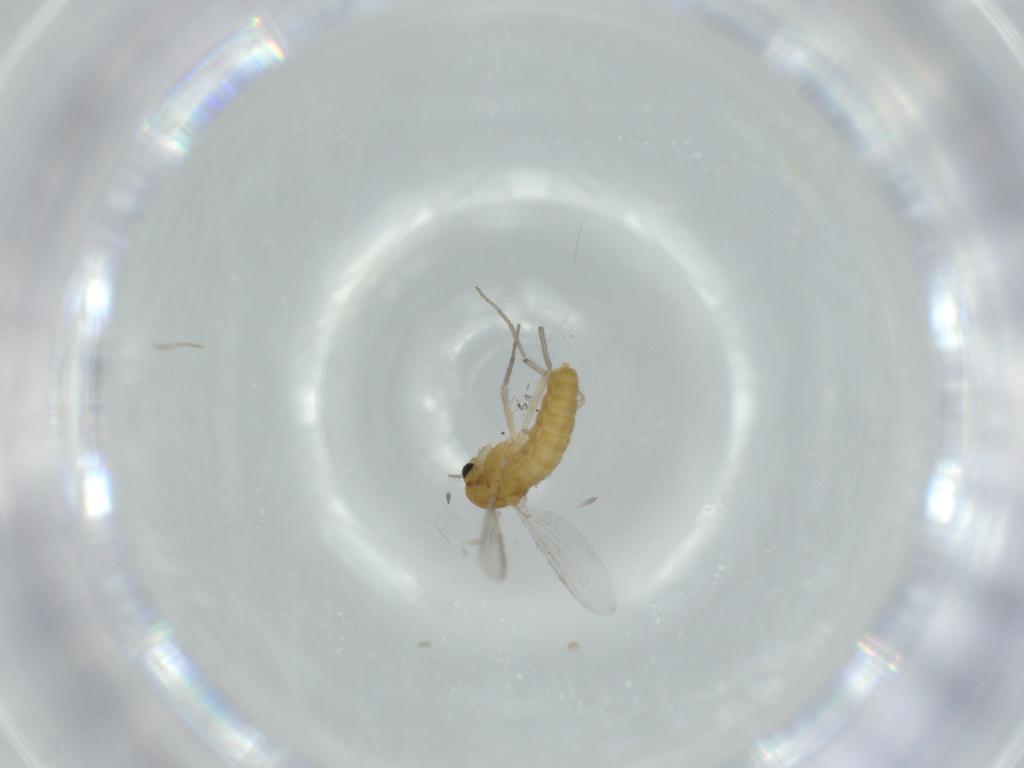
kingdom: Animalia
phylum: Arthropoda
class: Insecta
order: Diptera
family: Chironomidae
